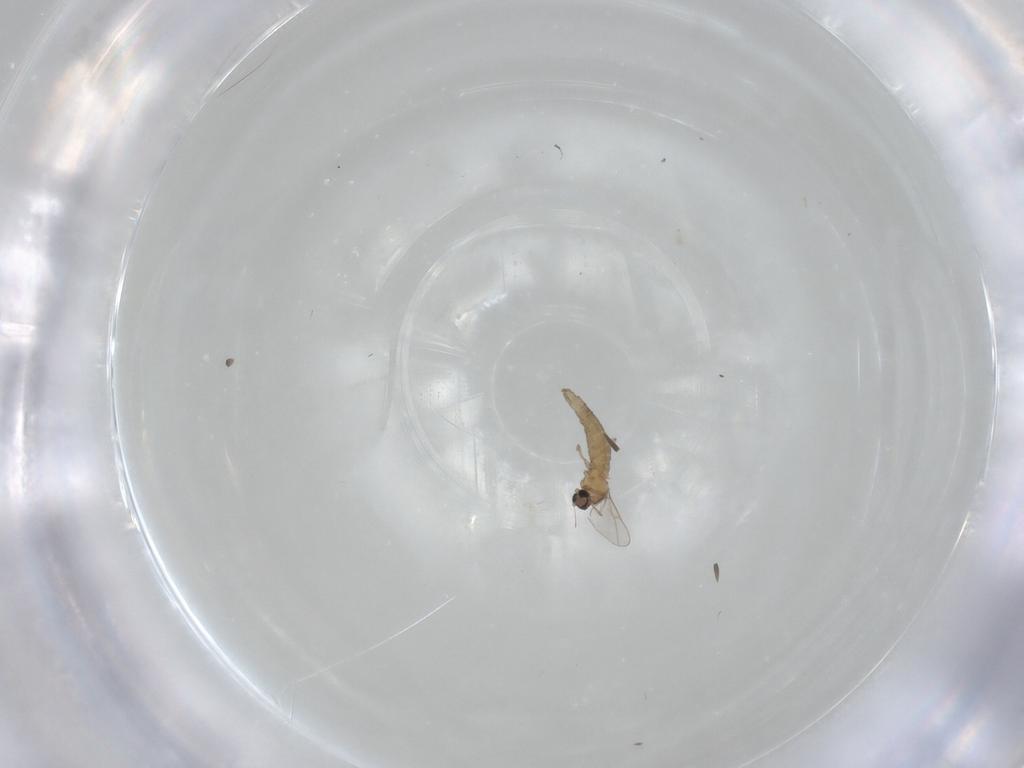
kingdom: Animalia
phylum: Arthropoda
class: Insecta
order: Diptera
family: Cecidomyiidae
